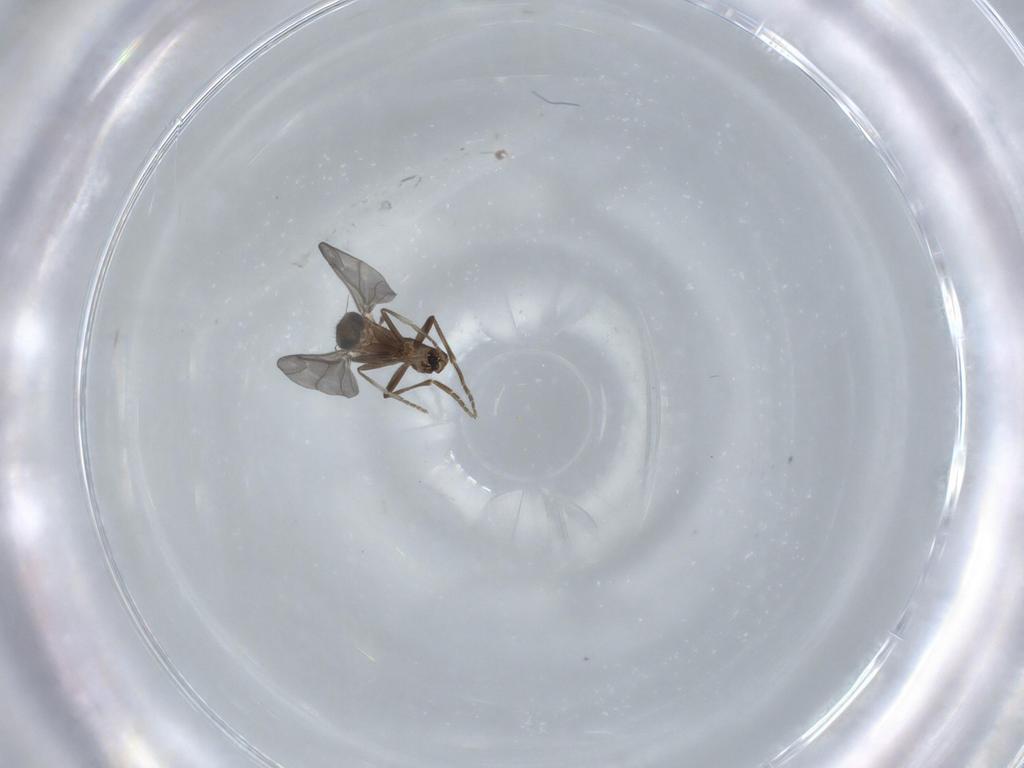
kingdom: Animalia
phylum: Arthropoda
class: Insecta
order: Diptera
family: Phoridae
